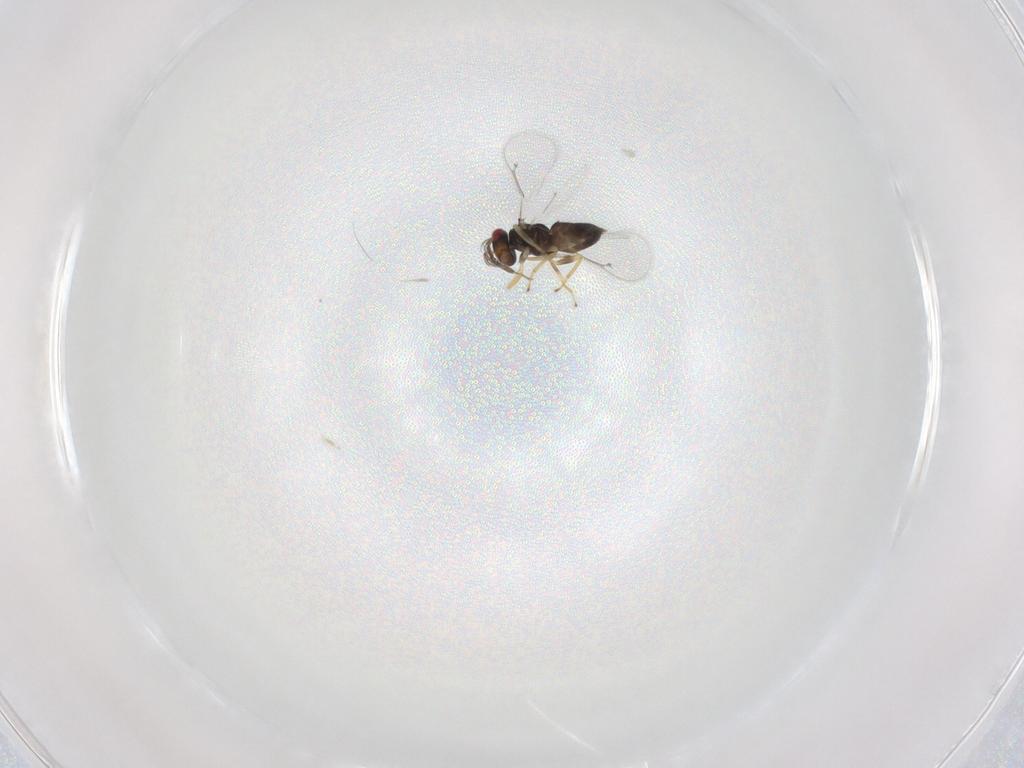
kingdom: Animalia
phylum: Arthropoda
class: Insecta
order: Hymenoptera
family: Eulophidae
